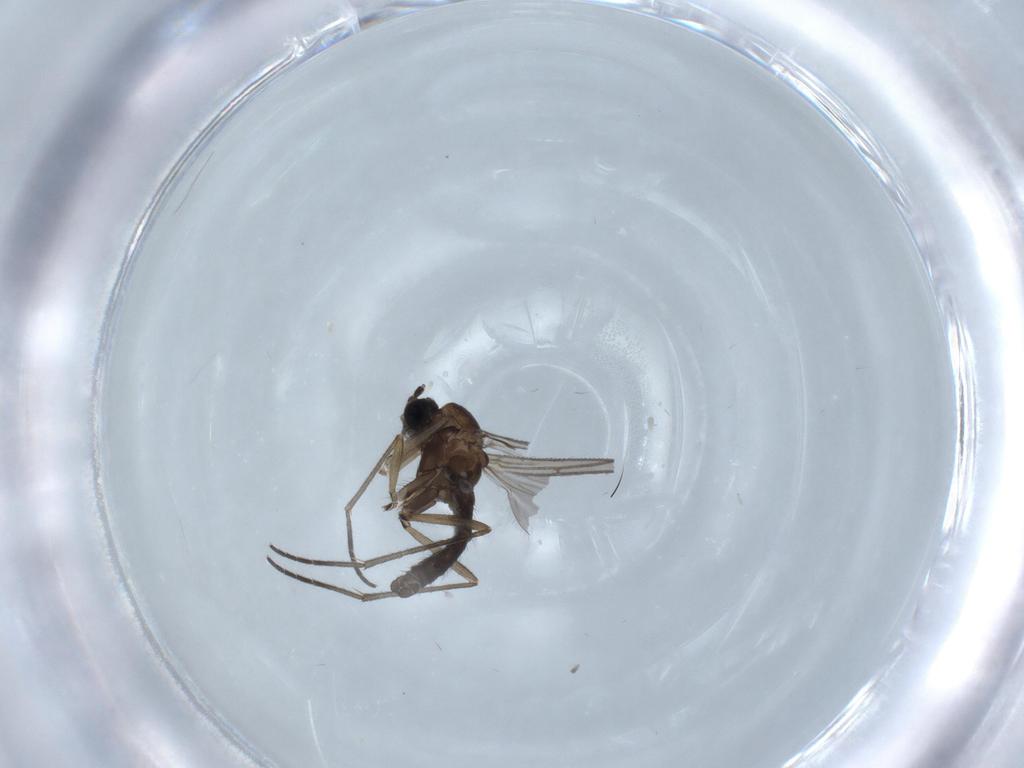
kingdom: Animalia
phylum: Arthropoda
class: Insecta
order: Diptera
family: Sciaridae
